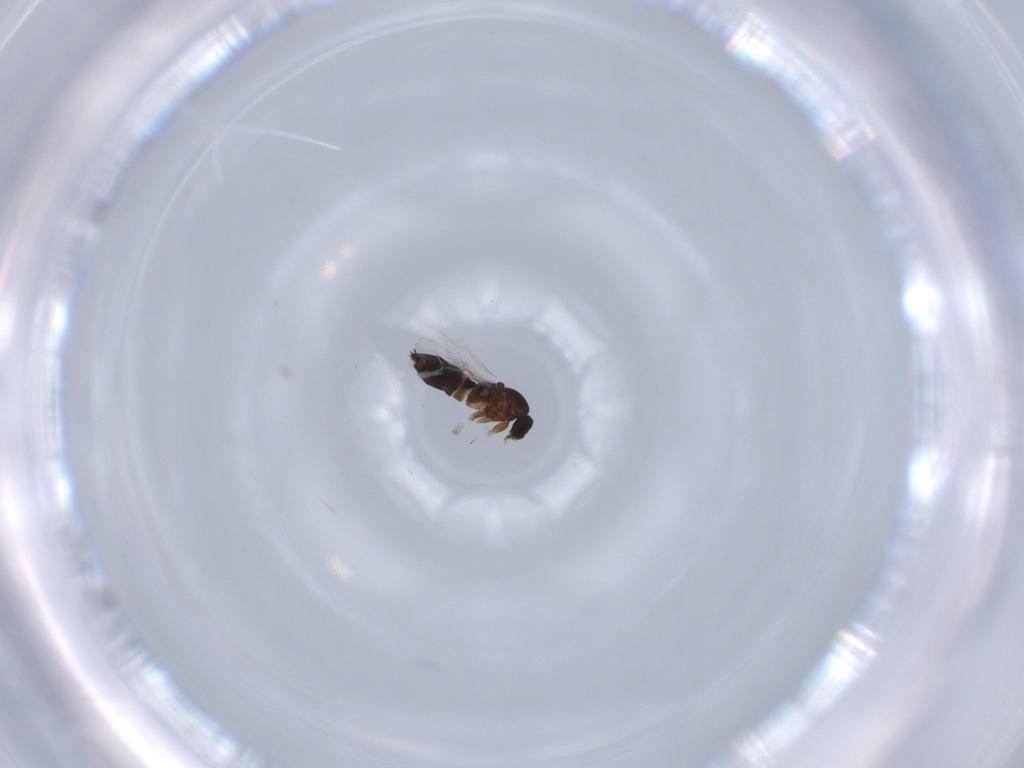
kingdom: Animalia
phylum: Arthropoda
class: Insecta
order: Diptera
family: Scatopsidae
